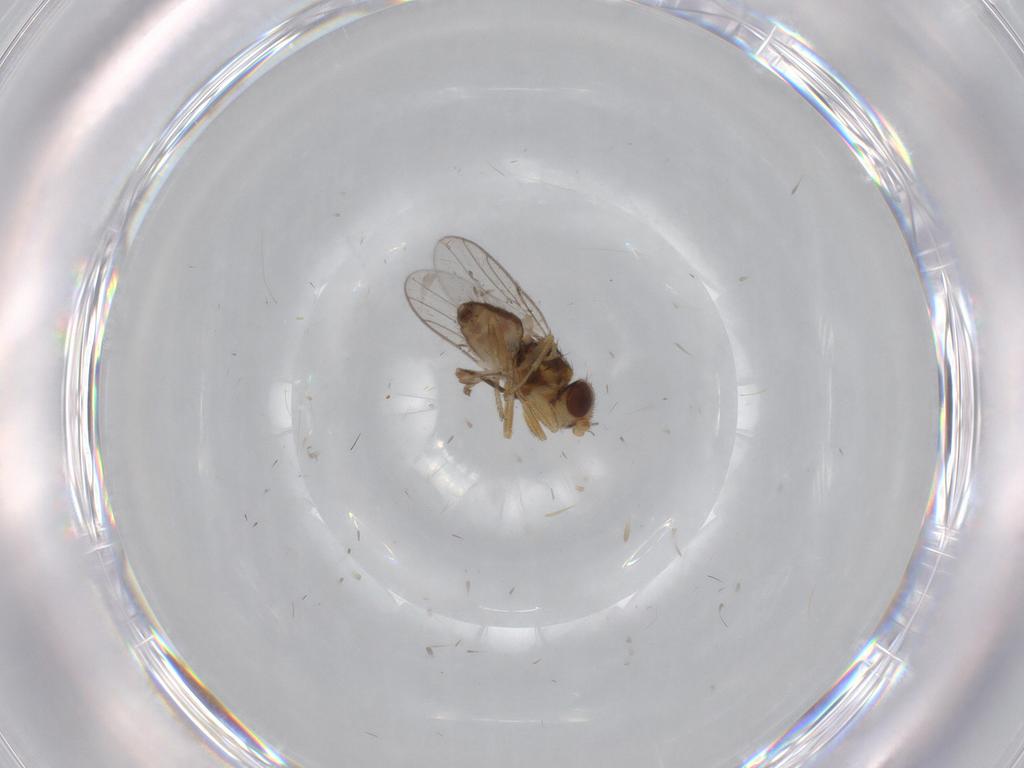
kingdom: Animalia
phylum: Arthropoda
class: Insecta
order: Diptera
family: Chloropidae
